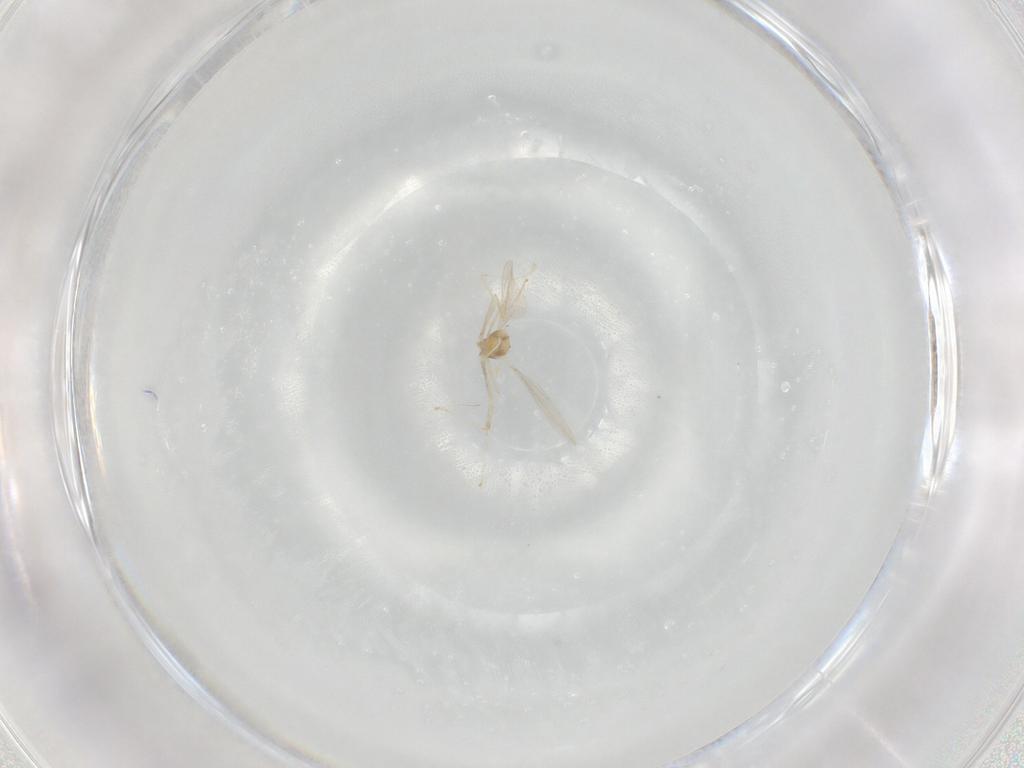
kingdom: Animalia
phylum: Arthropoda
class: Insecta
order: Diptera
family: Cecidomyiidae
